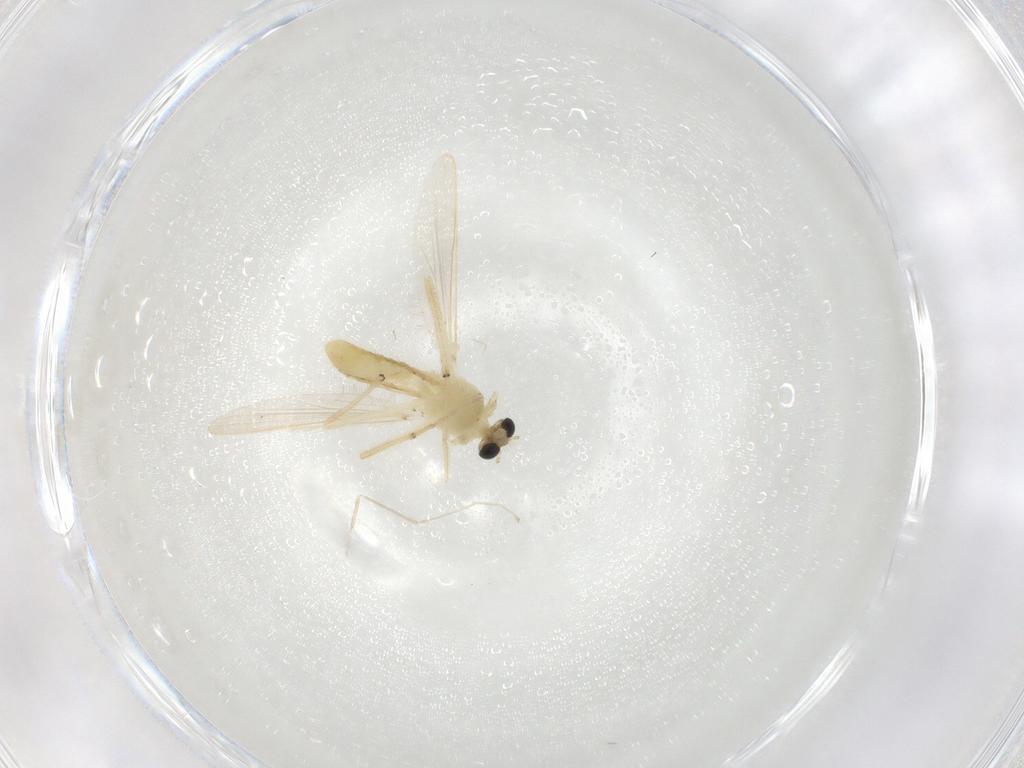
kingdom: Animalia
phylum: Arthropoda
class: Insecta
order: Diptera
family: Chironomidae
